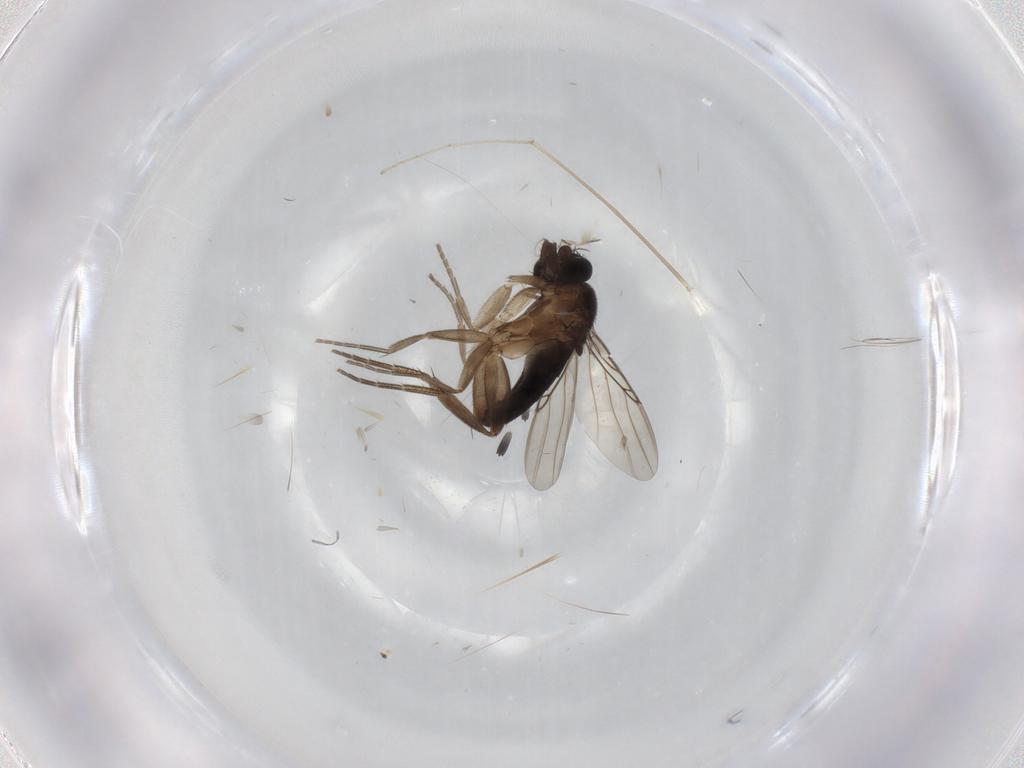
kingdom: Animalia
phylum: Arthropoda
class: Insecta
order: Diptera
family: Phoridae
